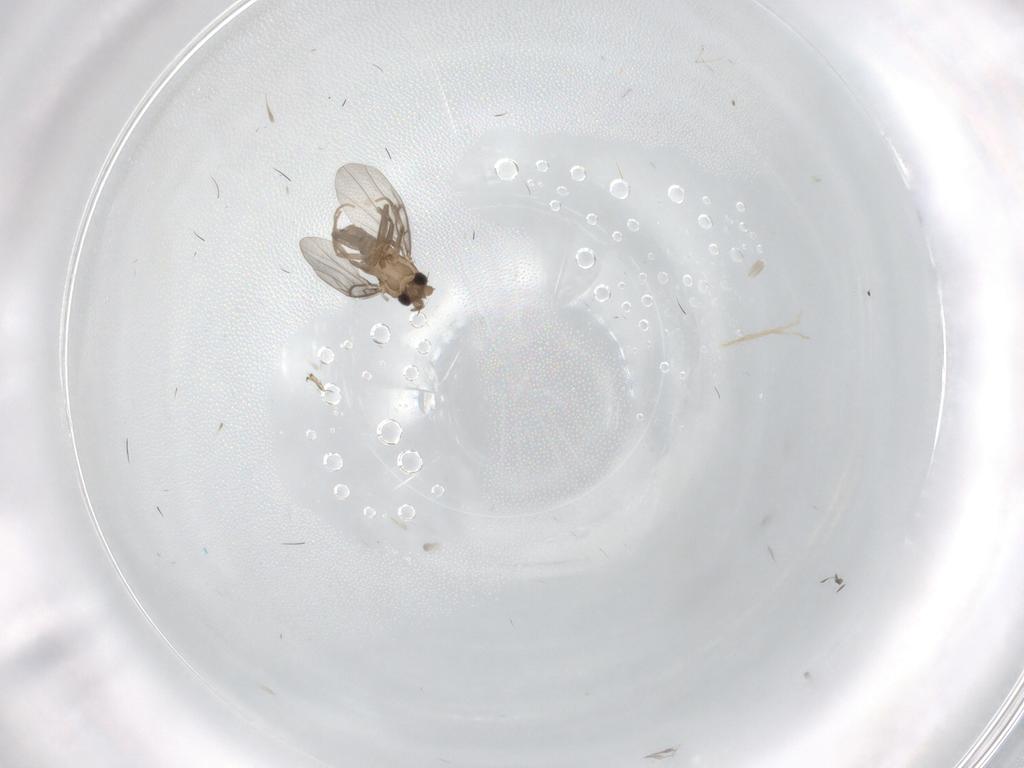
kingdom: Animalia
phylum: Arthropoda
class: Insecta
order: Diptera
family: Phoridae
